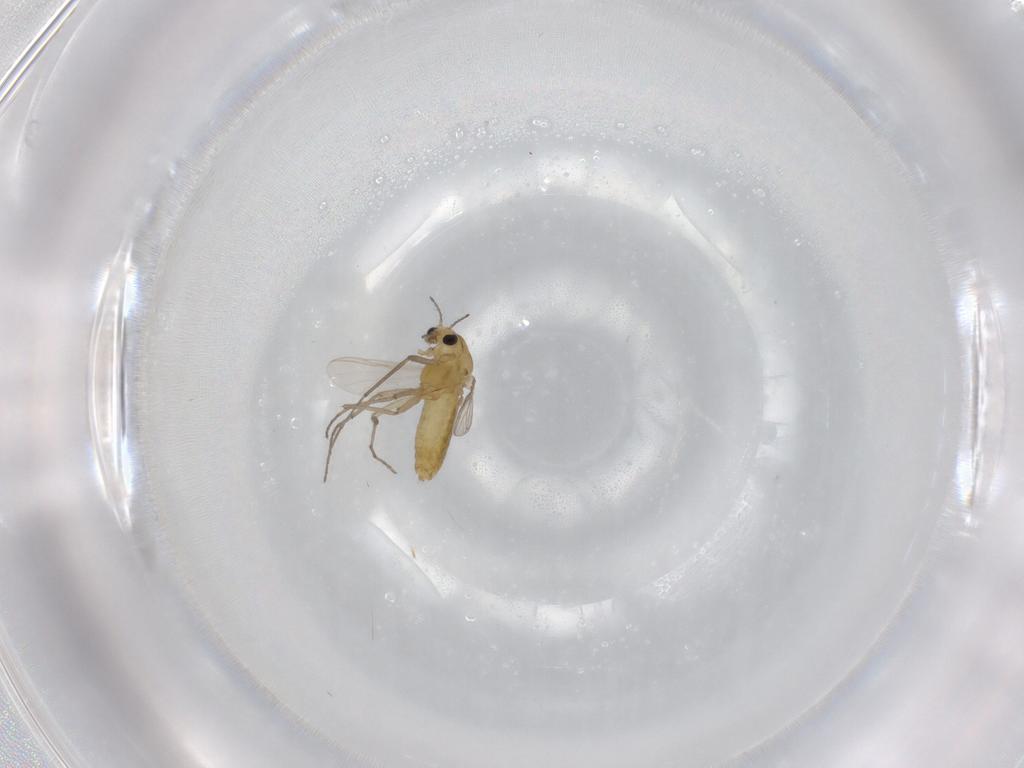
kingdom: Animalia
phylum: Arthropoda
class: Insecta
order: Diptera
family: Chironomidae
